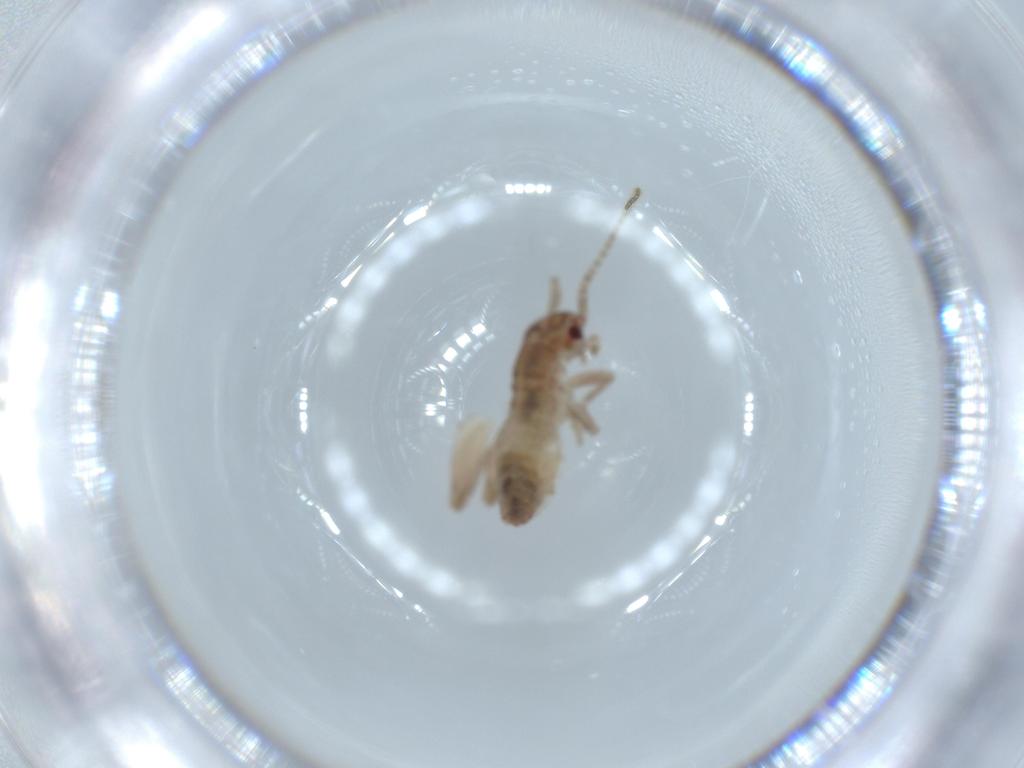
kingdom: Animalia
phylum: Arthropoda
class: Insecta
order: Orthoptera
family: Mogoplistidae
